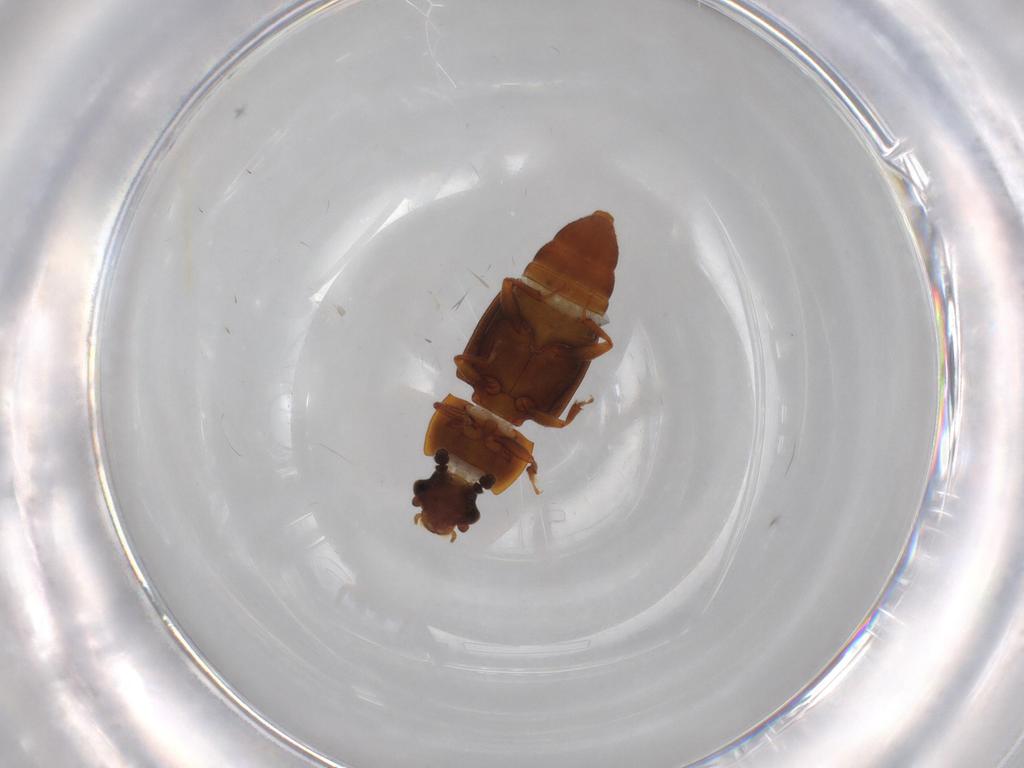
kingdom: Animalia
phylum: Arthropoda
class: Insecta
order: Coleoptera
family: Nitidulidae
